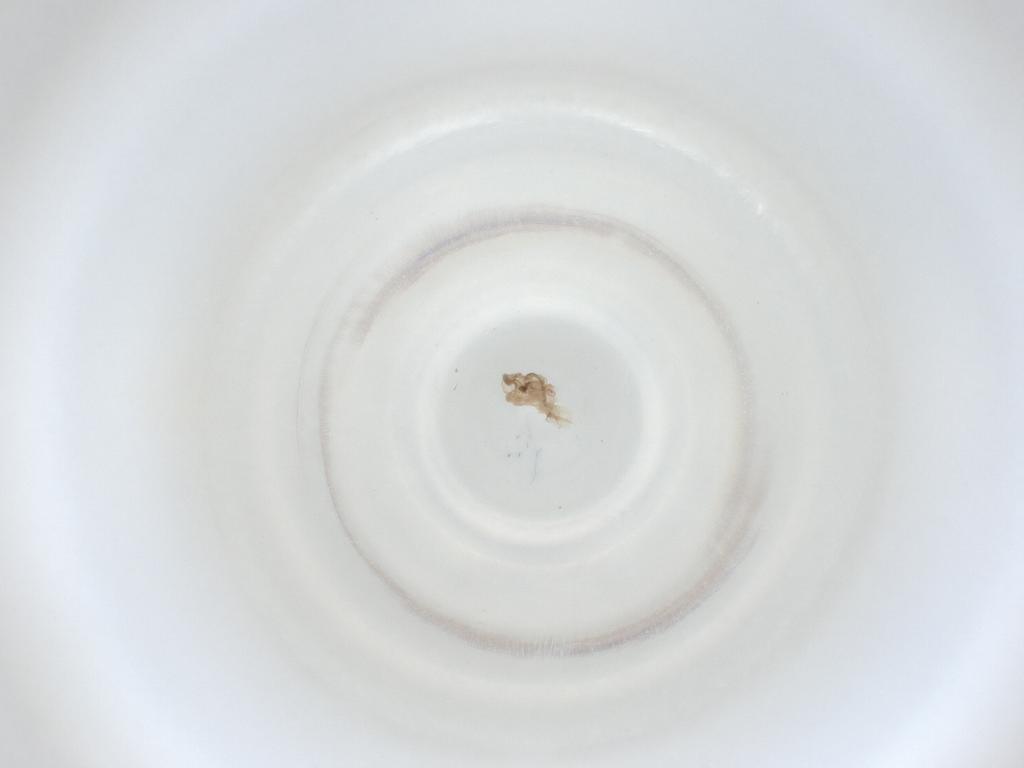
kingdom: Animalia
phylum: Arthropoda
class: Insecta
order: Diptera
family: Cecidomyiidae
